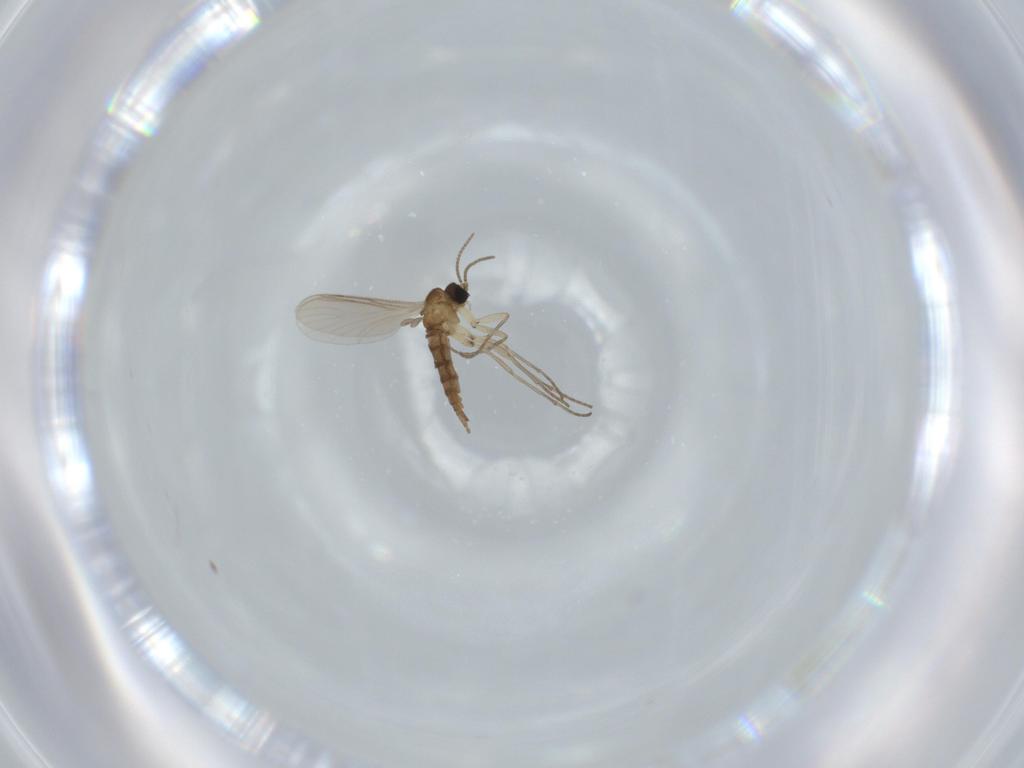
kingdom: Animalia
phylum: Arthropoda
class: Insecta
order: Diptera
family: Sciaridae
